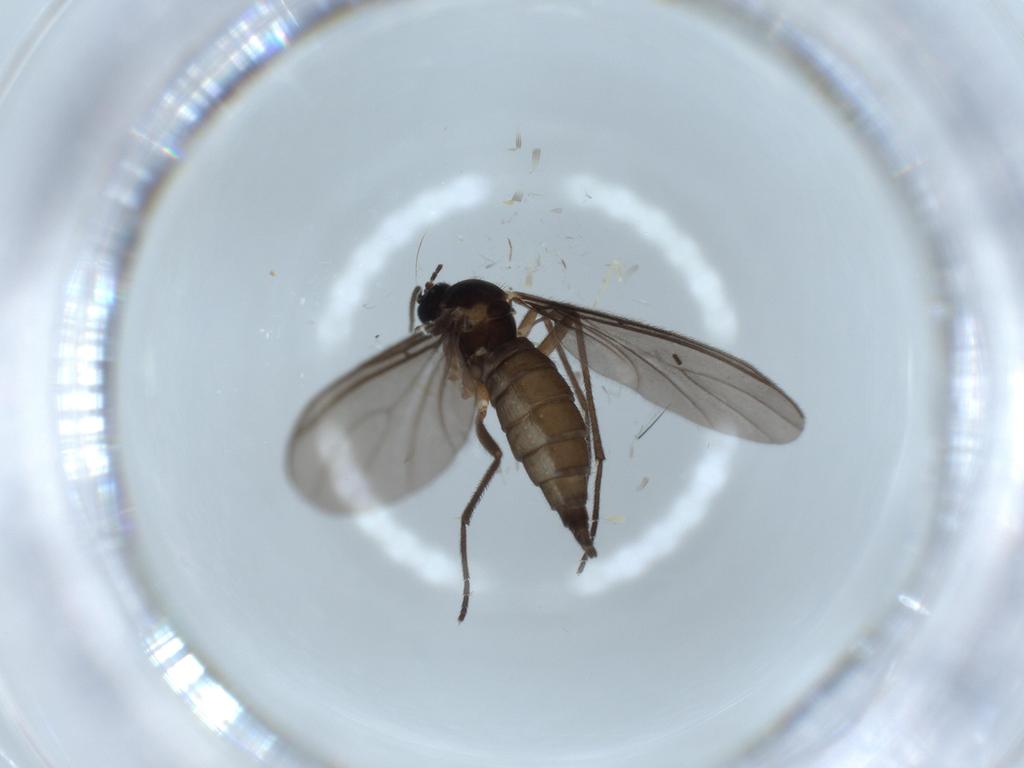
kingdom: Animalia
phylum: Arthropoda
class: Insecta
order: Diptera
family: Sciaridae
